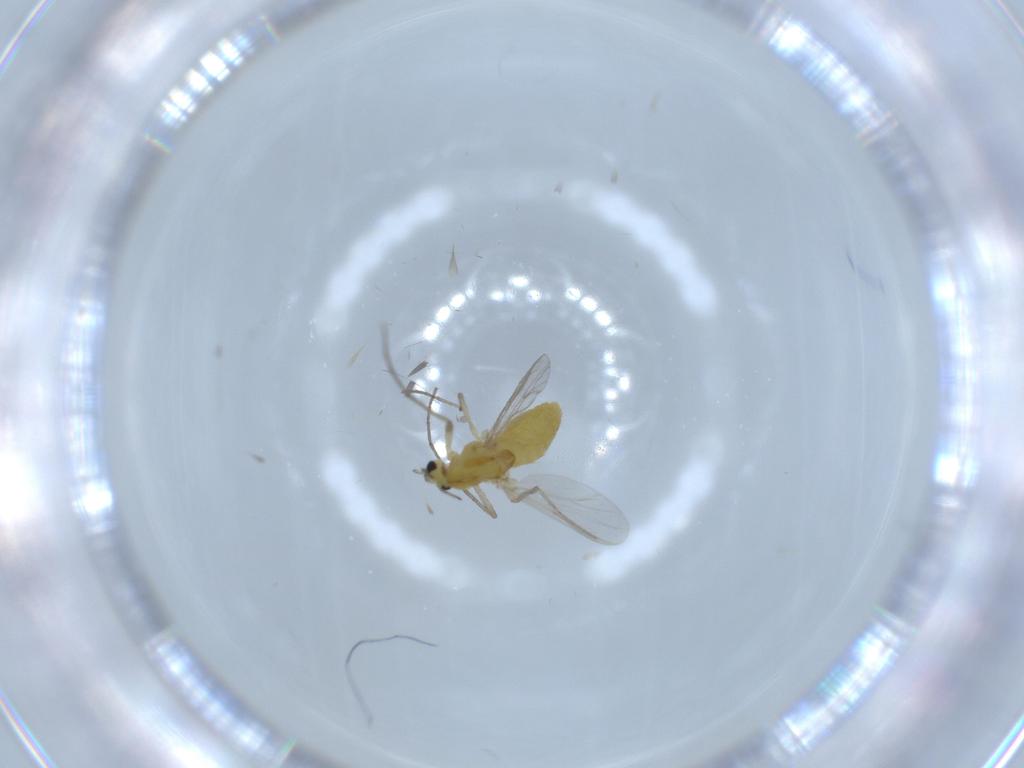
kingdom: Animalia
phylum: Arthropoda
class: Insecta
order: Diptera
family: Chironomidae
